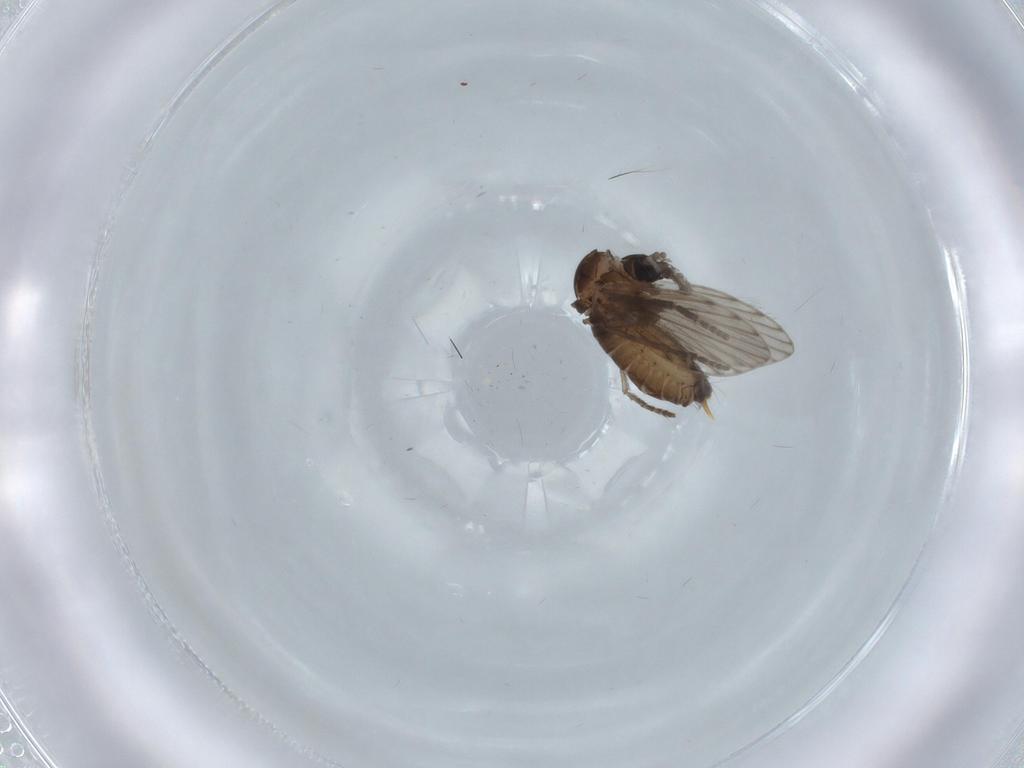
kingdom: Animalia
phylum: Arthropoda
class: Insecta
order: Diptera
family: Psychodidae
